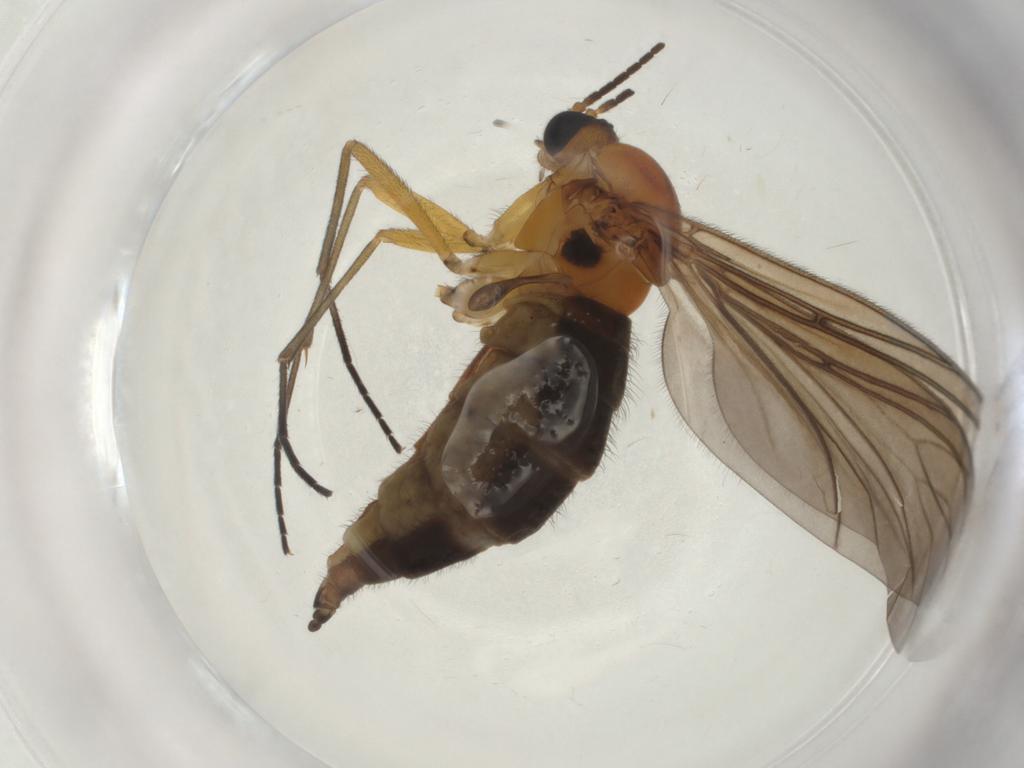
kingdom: Animalia
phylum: Arthropoda
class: Insecta
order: Diptera
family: Sciaridae
